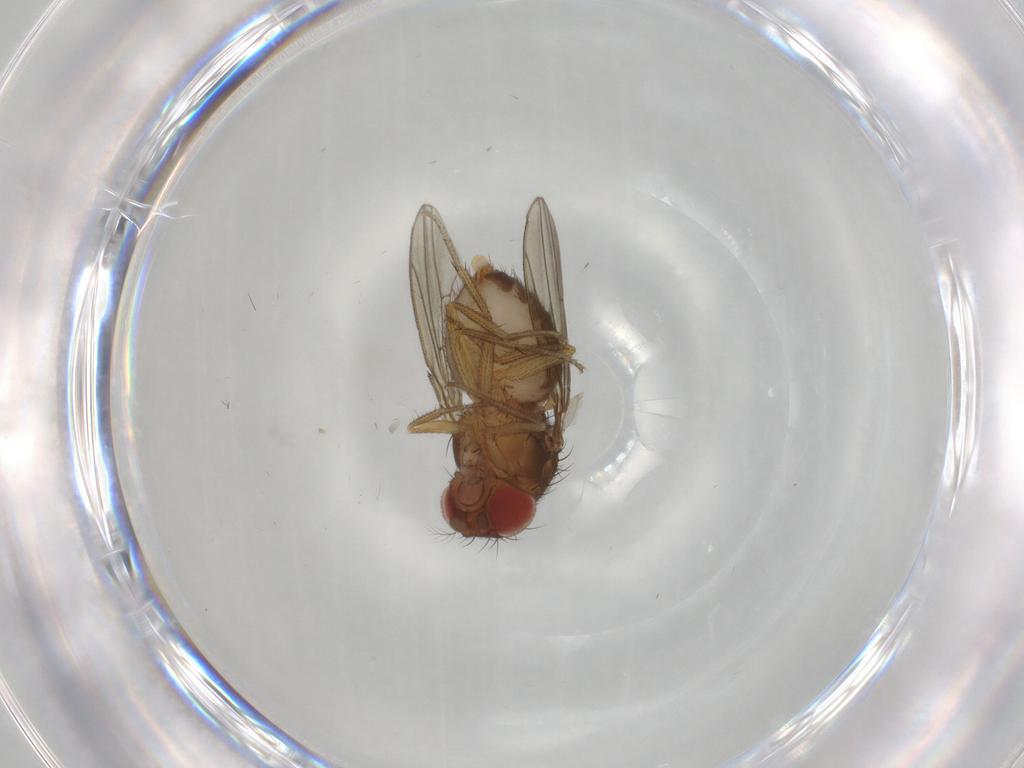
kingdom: Animalia
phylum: Arthropoda
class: Insecta
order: Diptera
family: Drosophilidae
